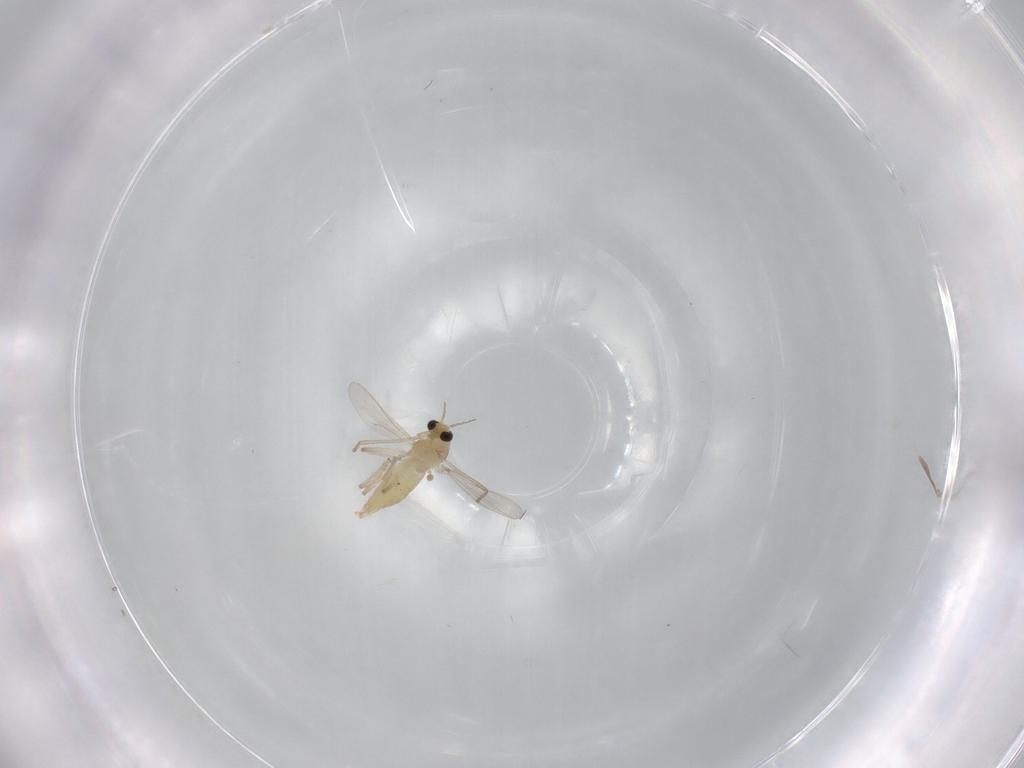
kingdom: Animalia
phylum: Arthropoda
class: Insecta
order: Diptera
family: Chironomidae
